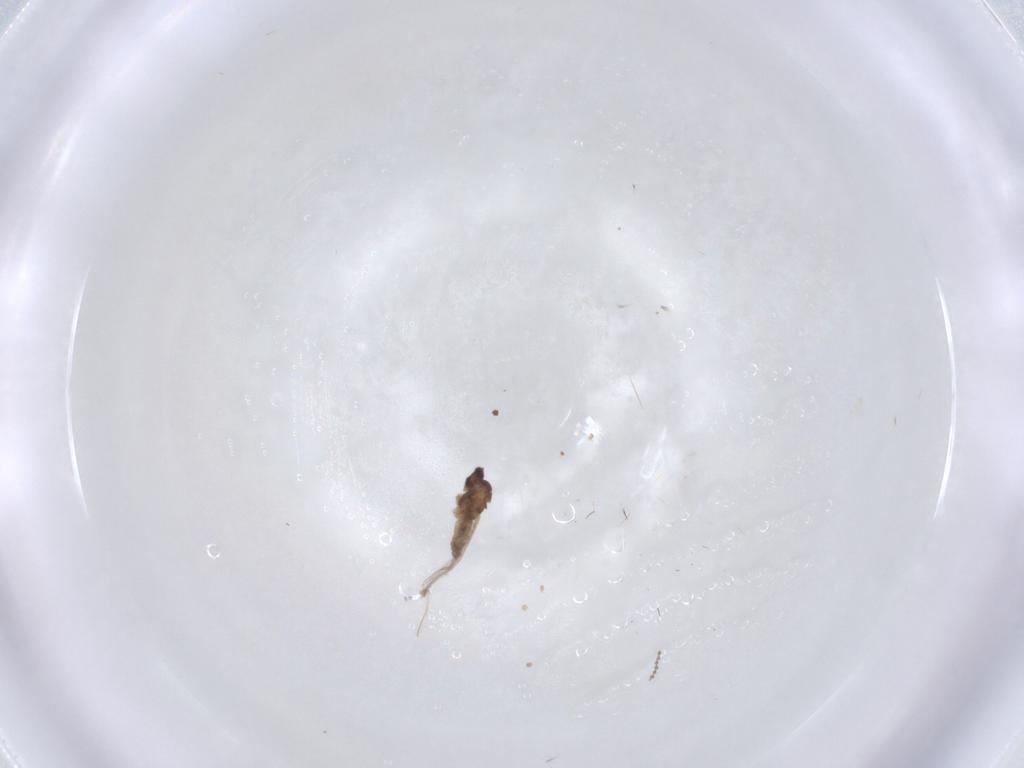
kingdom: Animalia
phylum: Arthropoda
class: Insecta
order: Diptera
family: Cecidomyiidae
